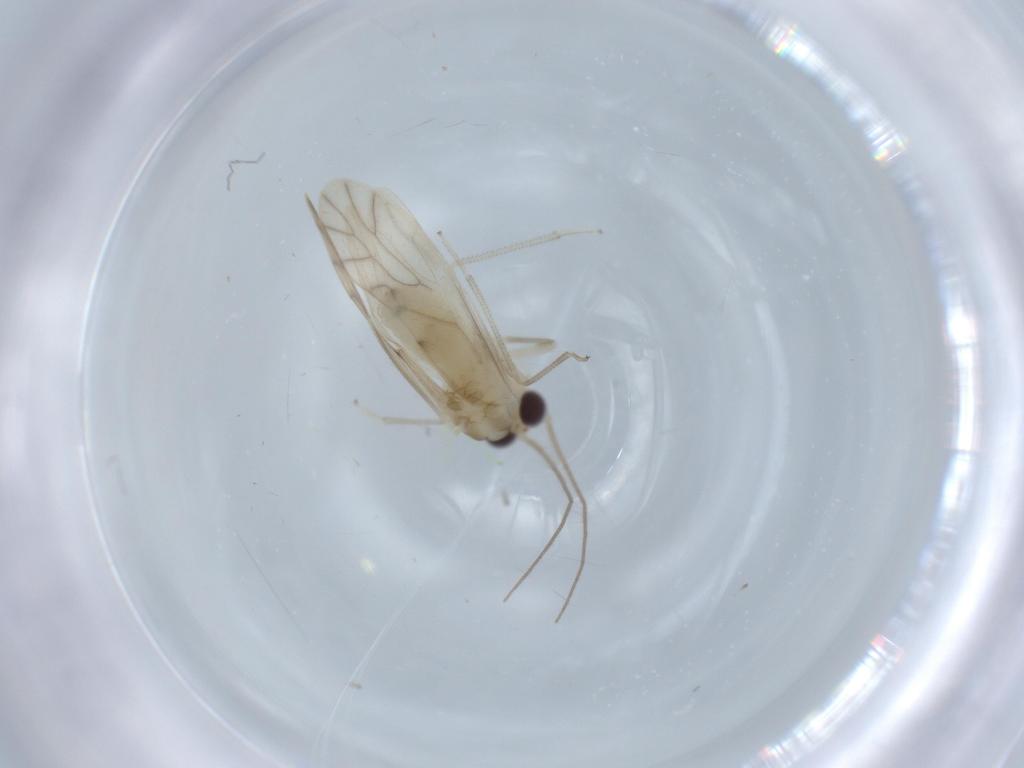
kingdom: Animalia
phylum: Arthropoda
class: Insecta
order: Psocodea
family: Caeciliusidae
